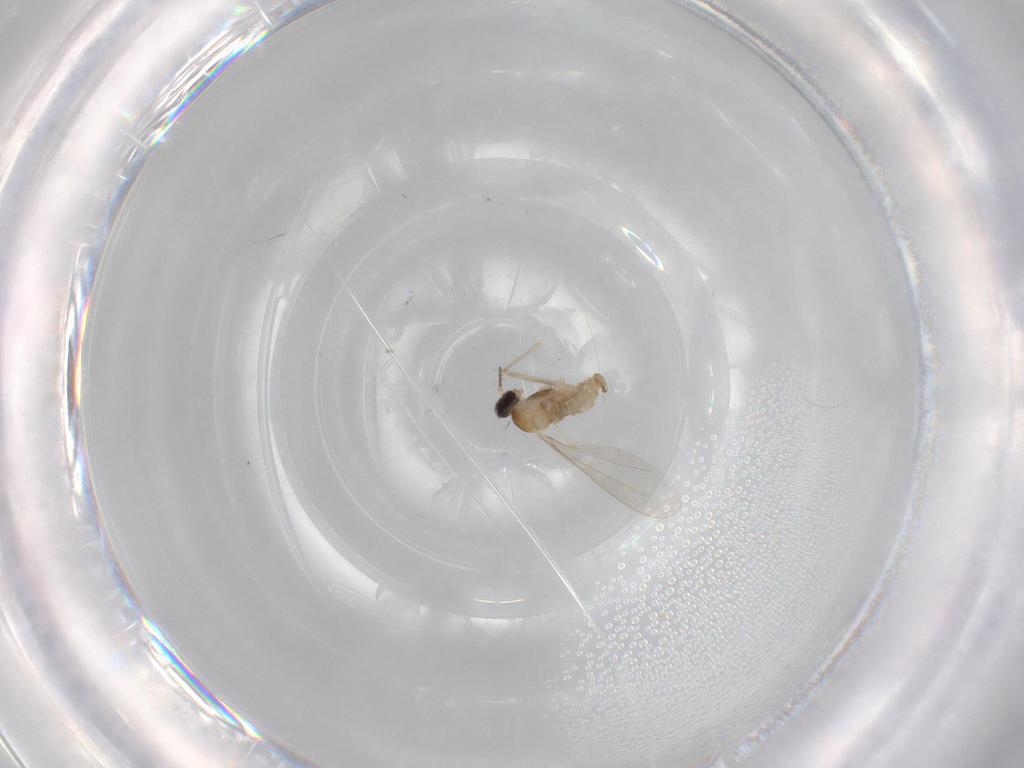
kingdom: Animalia
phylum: Arthropoda
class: Insecta
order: Diptera
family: Cecidomyiidae
